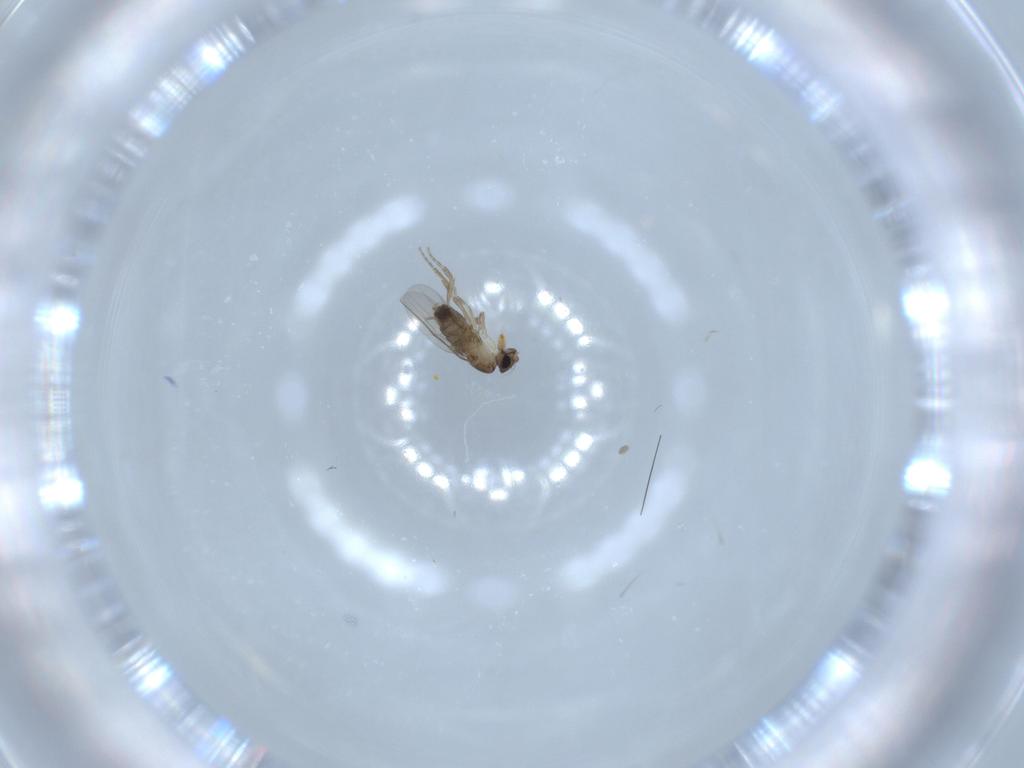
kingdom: Animalia
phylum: Arthropoda
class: Insecta
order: Diptera
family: Phoridae
